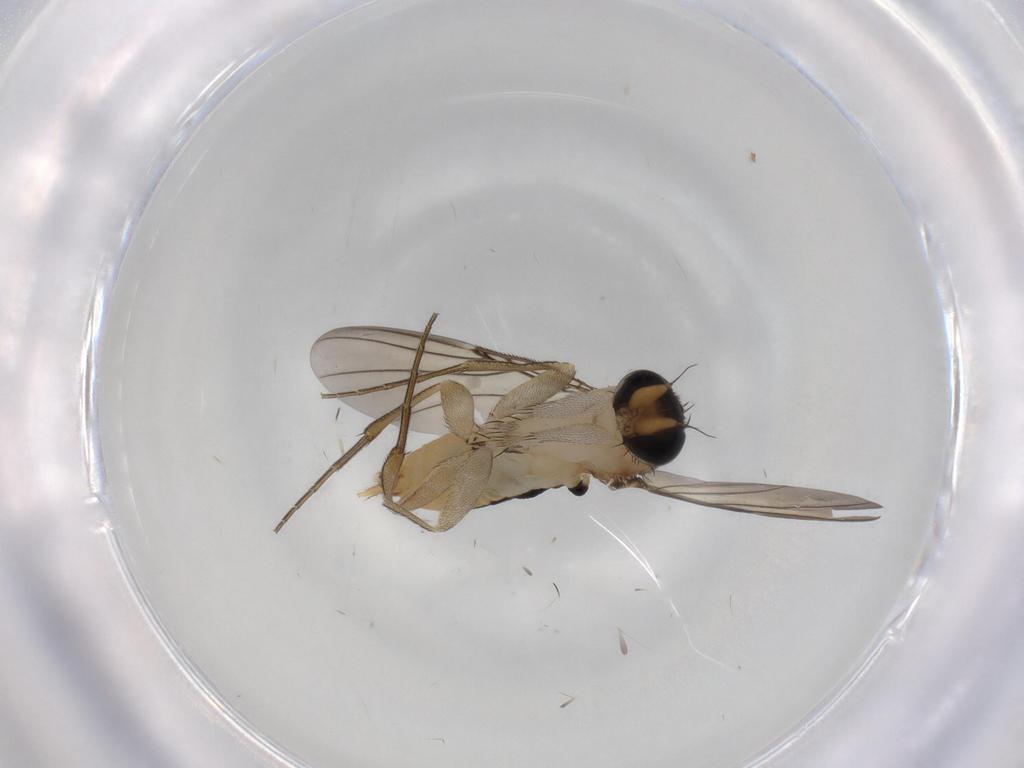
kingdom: Animalia
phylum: Arthropoda
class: Insecta
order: Diptera
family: Phoridae
